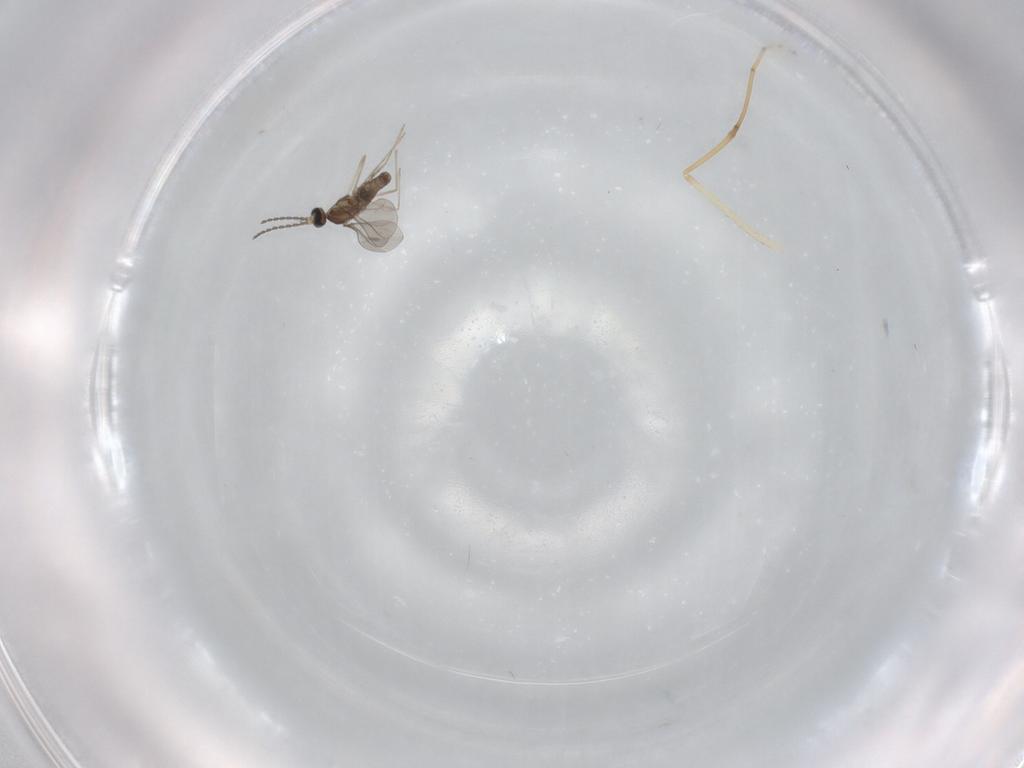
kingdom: Animalia
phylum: Arthropoda
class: Insecta
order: Diptera
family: Cecidomyiidae
